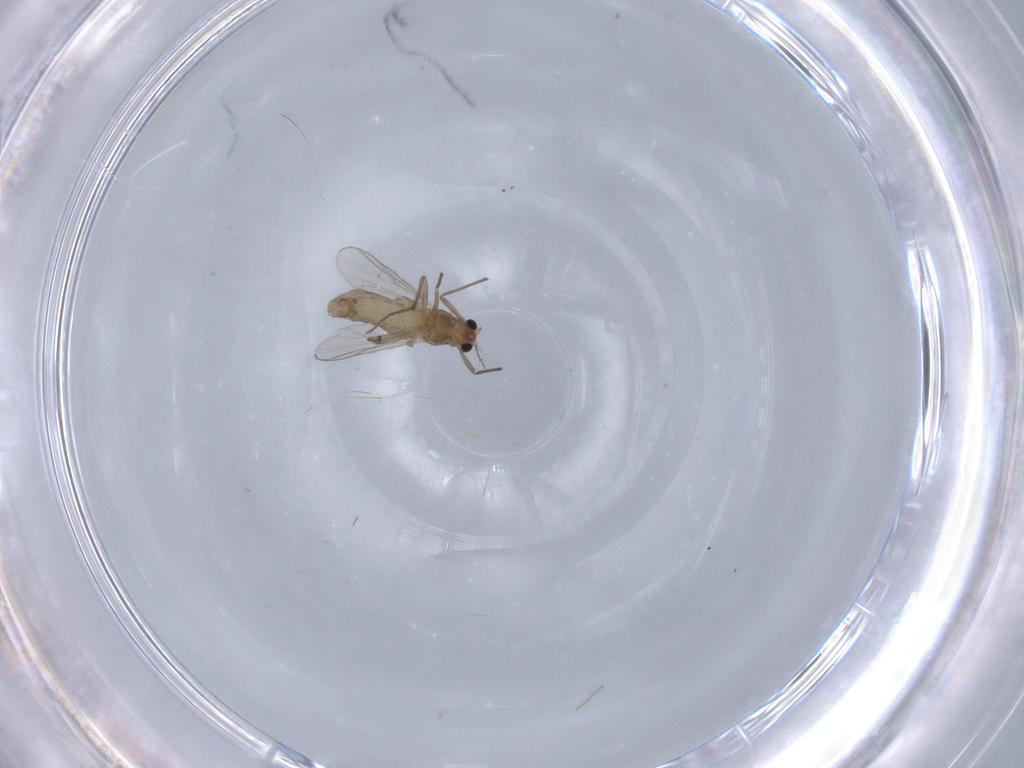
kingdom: Animalia
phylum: Arthropoda
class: Insecta
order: Diptera
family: Chironomidae
